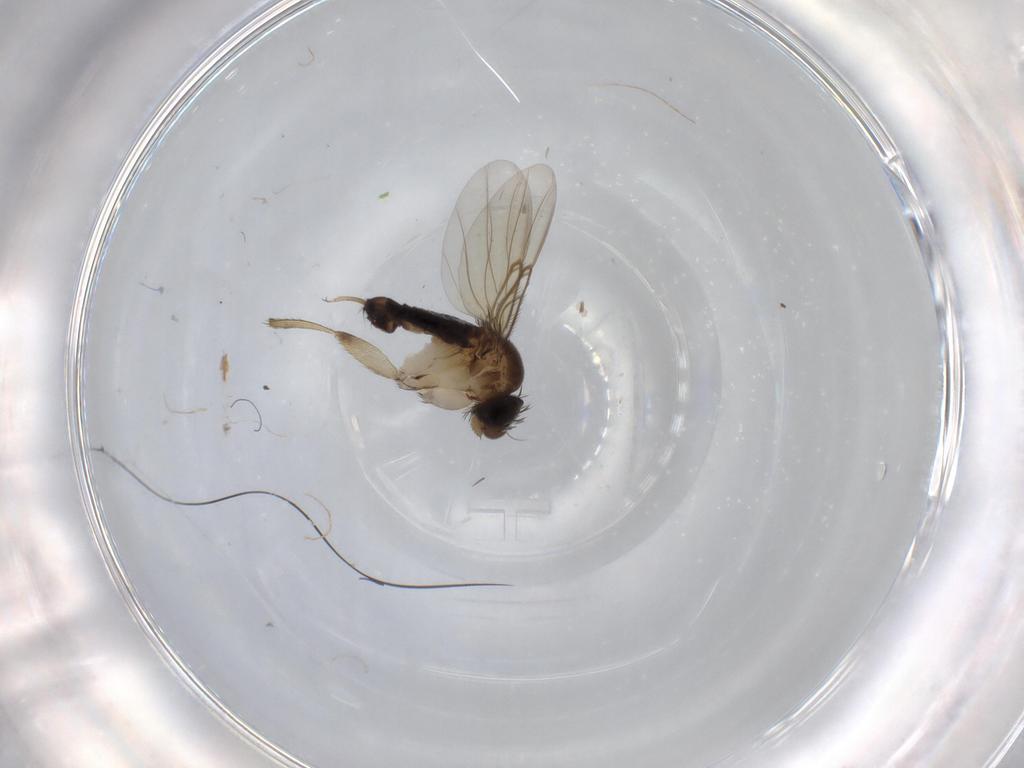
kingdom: Animalia
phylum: Arthropoda
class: Insecta
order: Diptera
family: Phoridae
